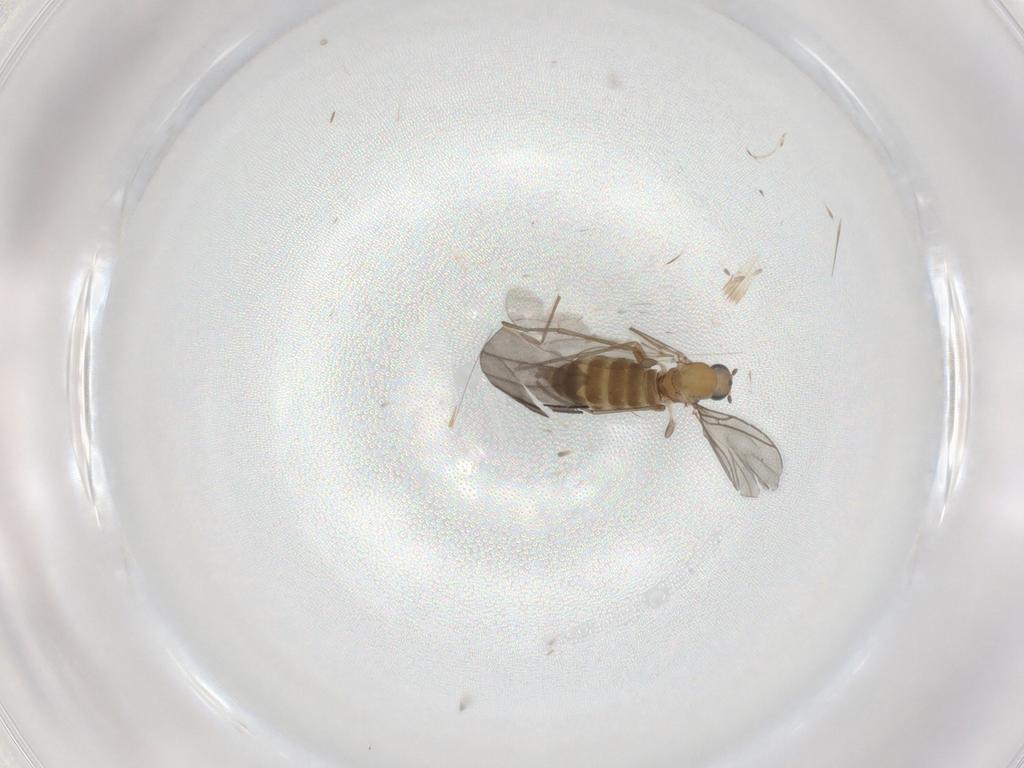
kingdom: Animalia
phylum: Arthropoda
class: Insecta
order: Diptera
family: Sciaridae
